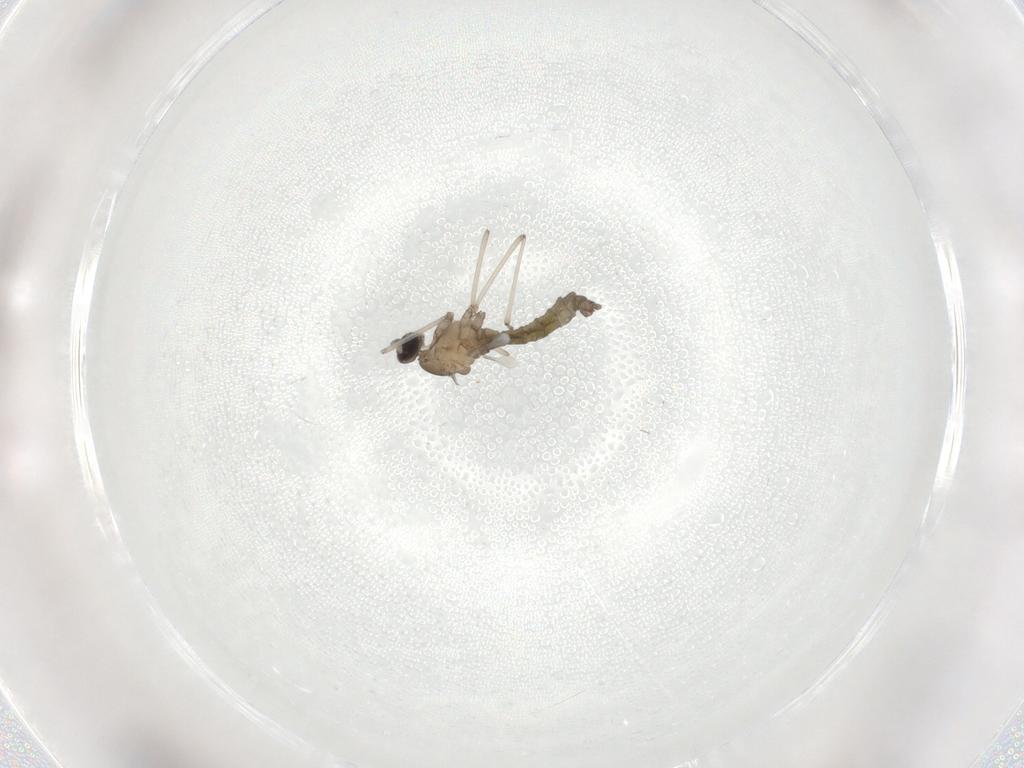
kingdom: Animalia
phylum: Arthropoda
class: Insecta
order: Diptera
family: Cecidomyiidae
